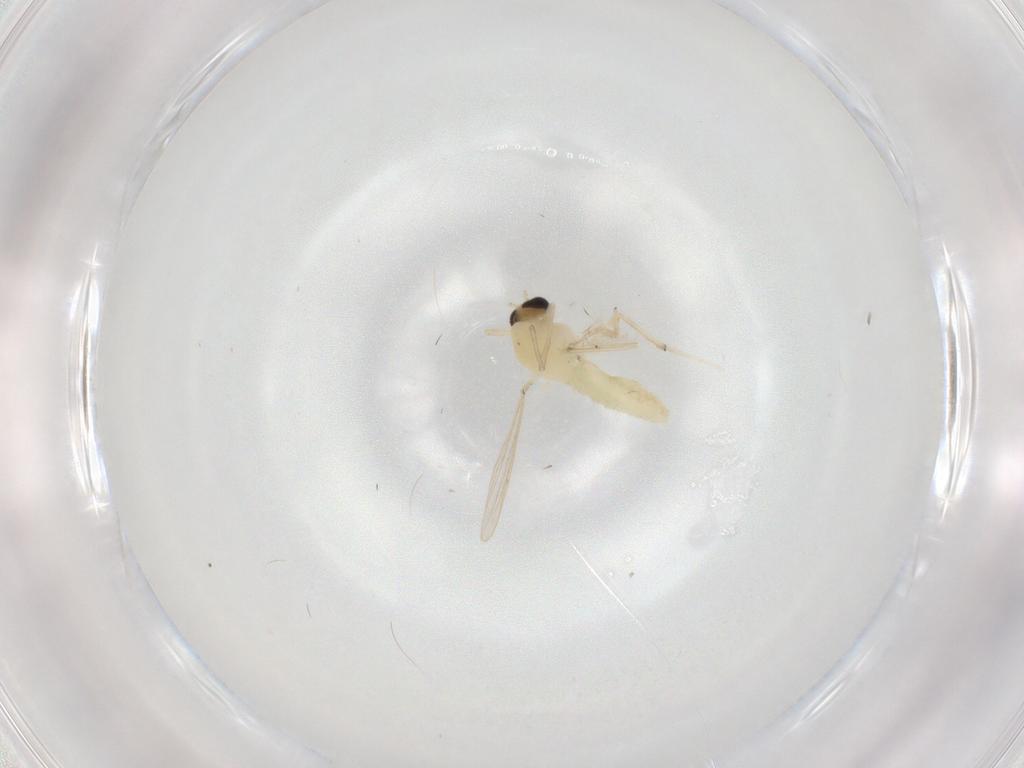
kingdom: Animalia
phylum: Arthropoda
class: Insecta
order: Diptera
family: Chironomidae
